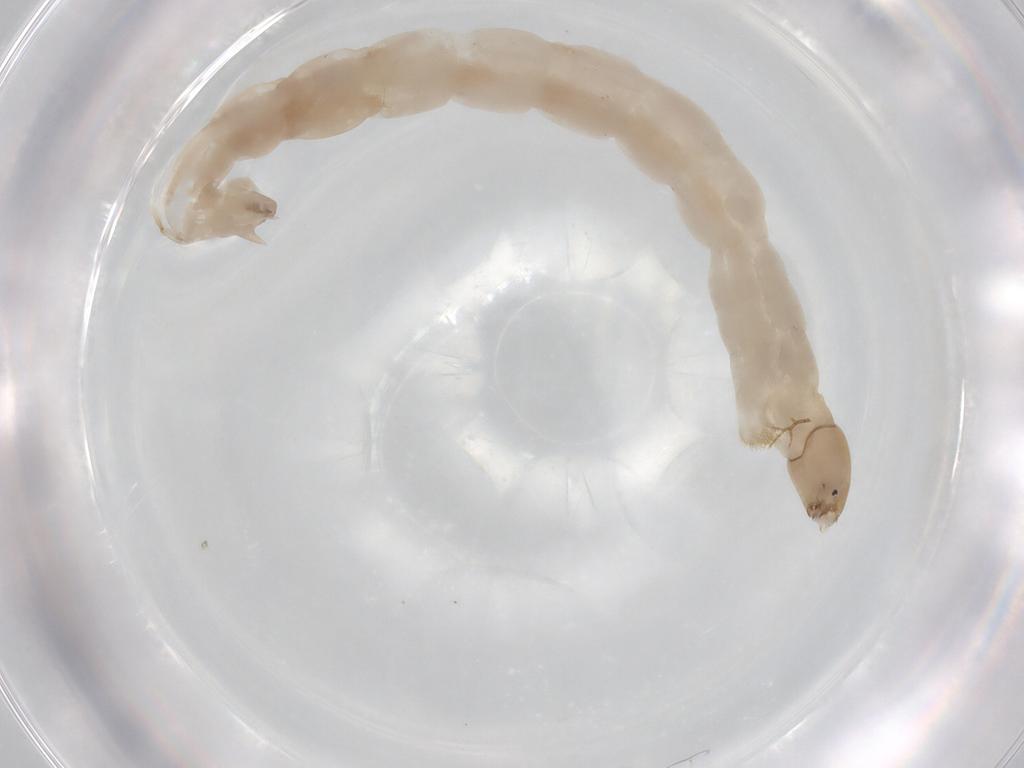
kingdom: Animalia
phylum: Arthropoda
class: Insecta
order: Diptera
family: Chironomidae
